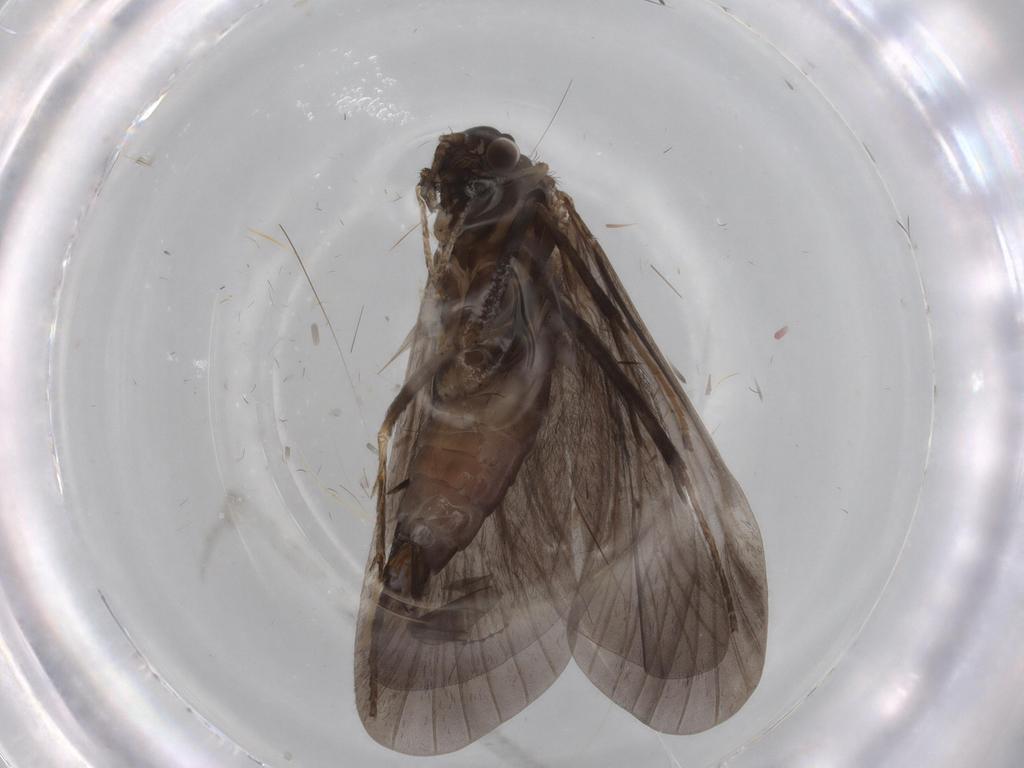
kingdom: Animalia
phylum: Arthropoda
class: Insecta
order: Trichoptera
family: Hydropsychidae
